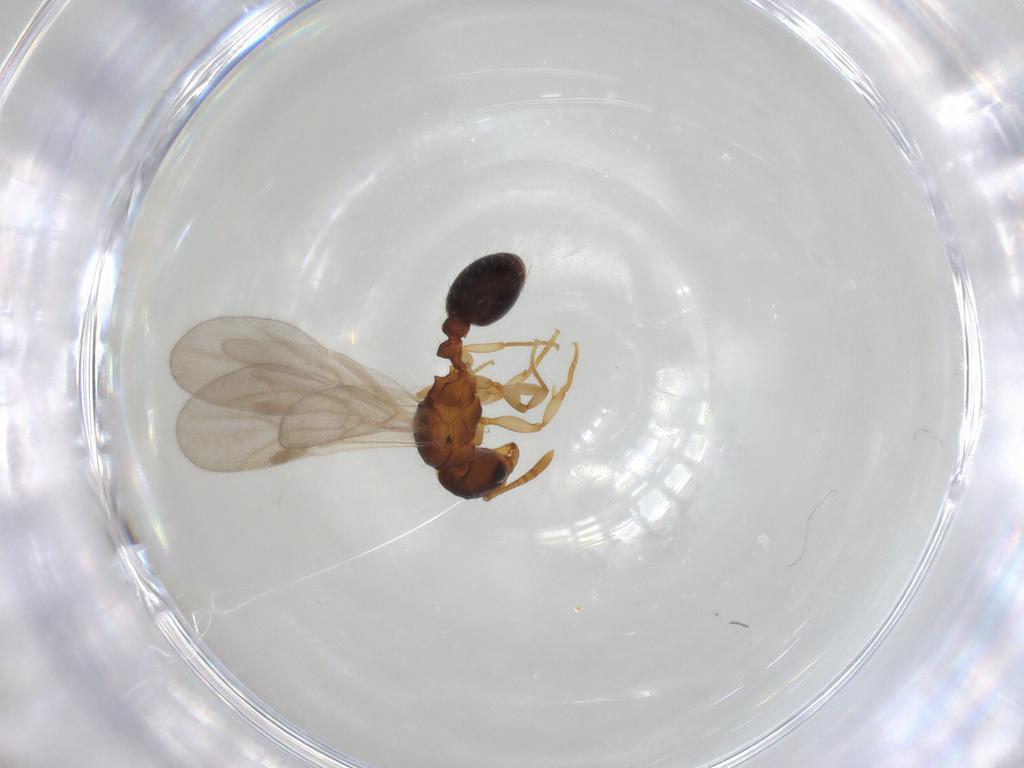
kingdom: Animalia
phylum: Arthropoda
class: Insecta
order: Hymenoptera
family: Formicidae
